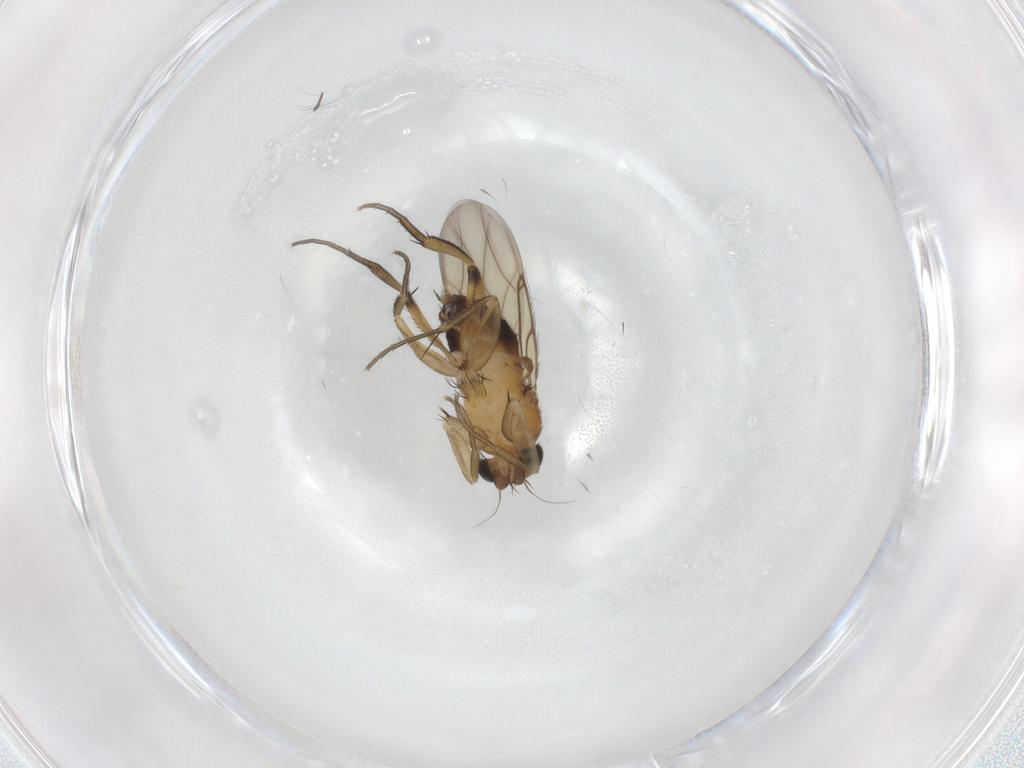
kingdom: Animalia
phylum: Arthropoda
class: Insecta
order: Diptera
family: Phoridae
